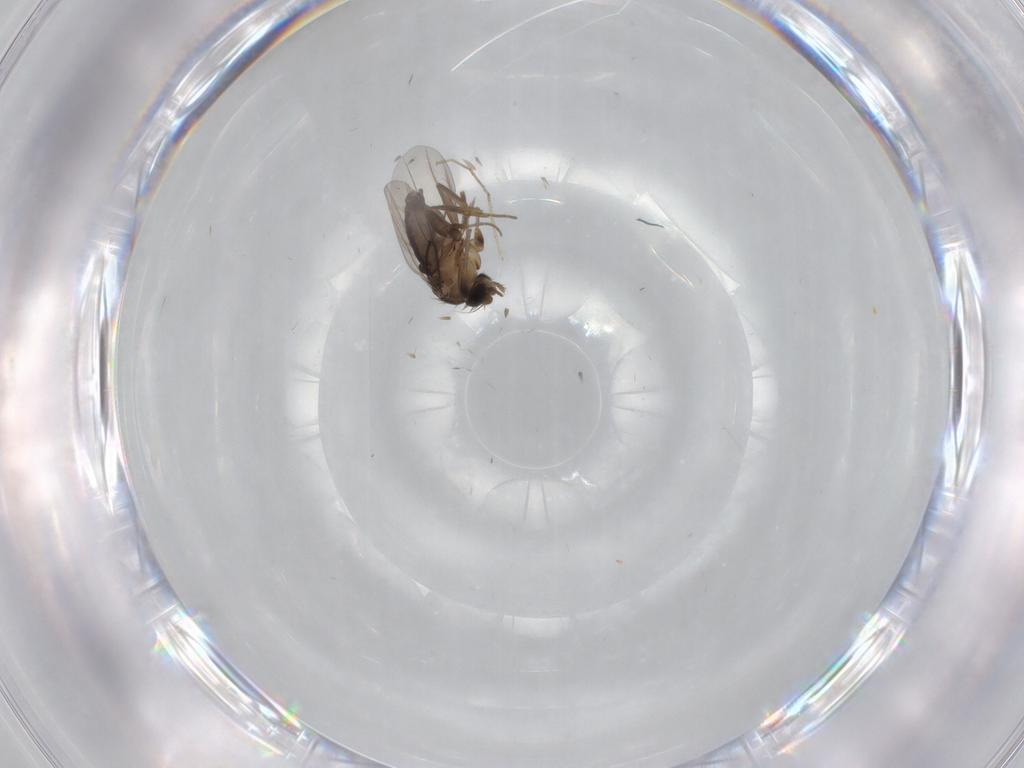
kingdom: Animalia
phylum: Arthropoda
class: Insecta
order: Diptera
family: Phoridae
